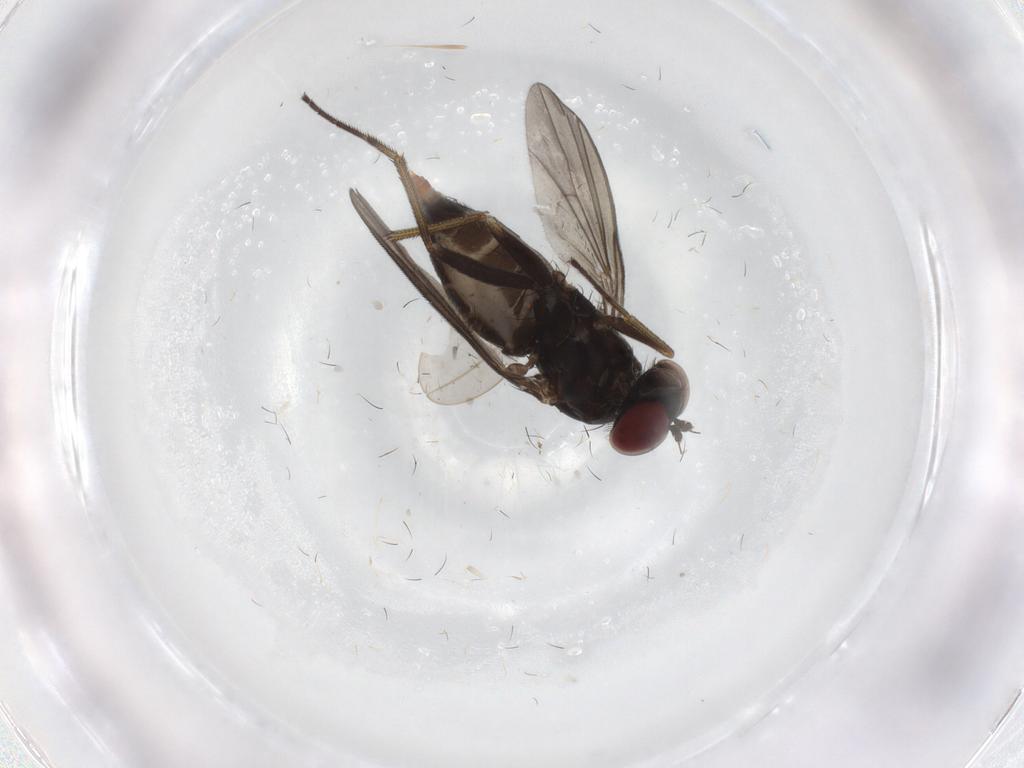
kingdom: Animalia
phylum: Arthropoda
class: Insecta
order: Diptera
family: Dolichopodidae
